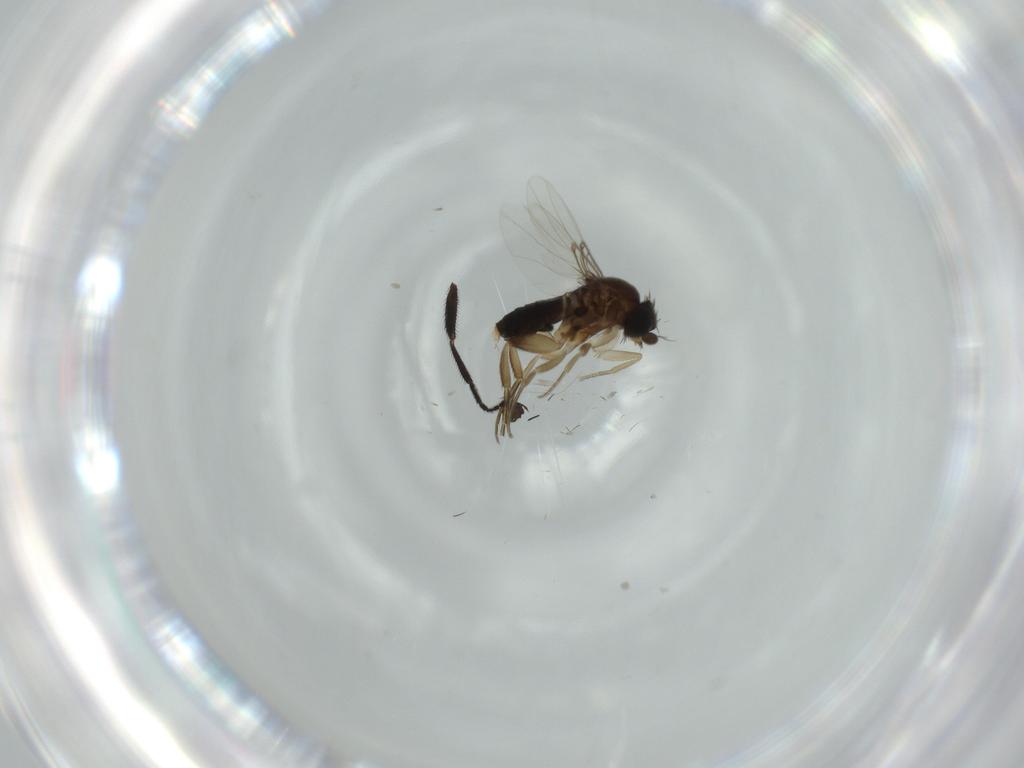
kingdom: Animalia
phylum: Arthropoda
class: Insecta
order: Diptera
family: Phoridae
